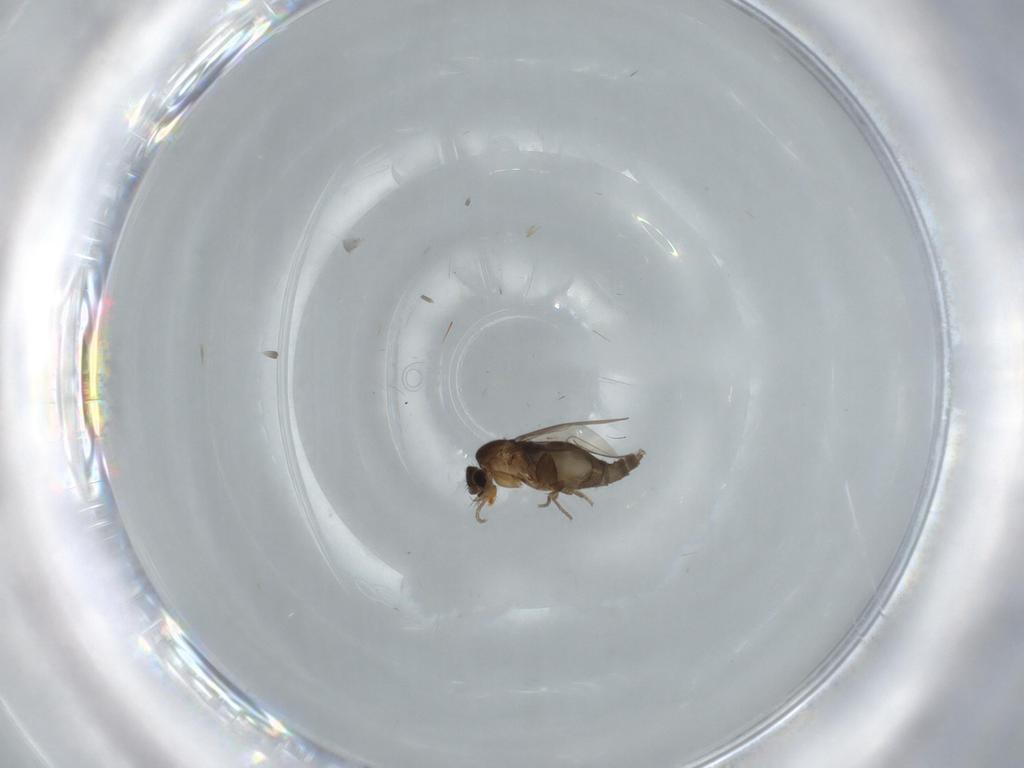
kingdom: Animalia
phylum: Arthropoda
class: Insecta
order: Diptera
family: Phoridae
